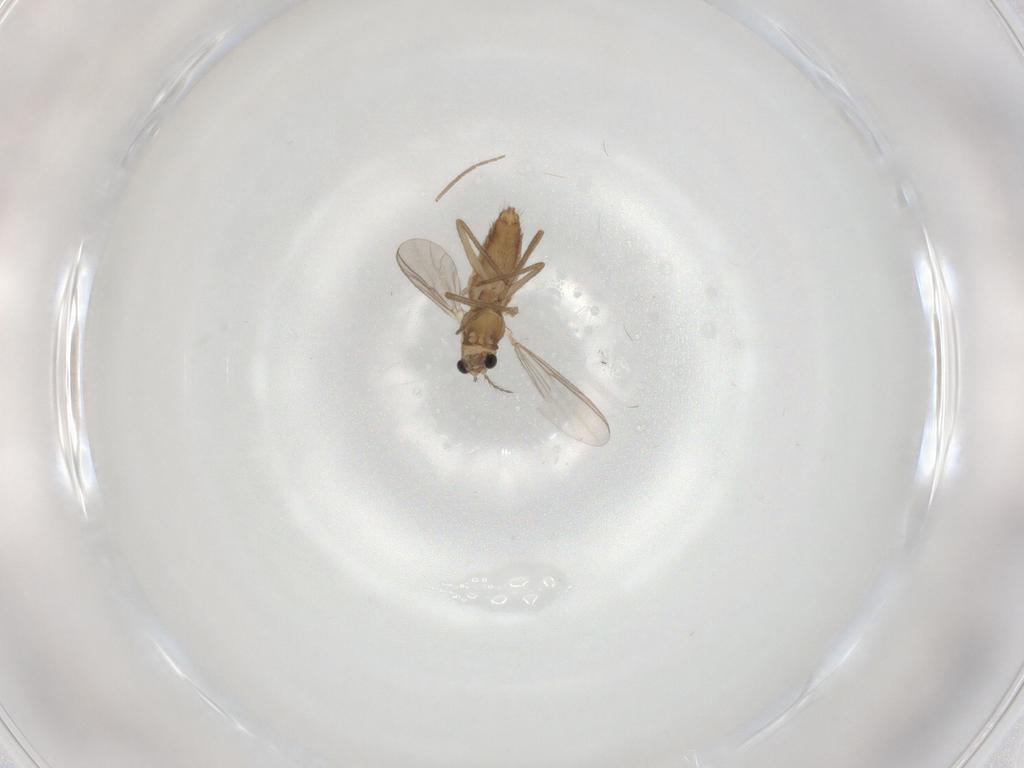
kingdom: Animalia
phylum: Arthropoda
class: Insecta
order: Diptera
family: Chironomidae
